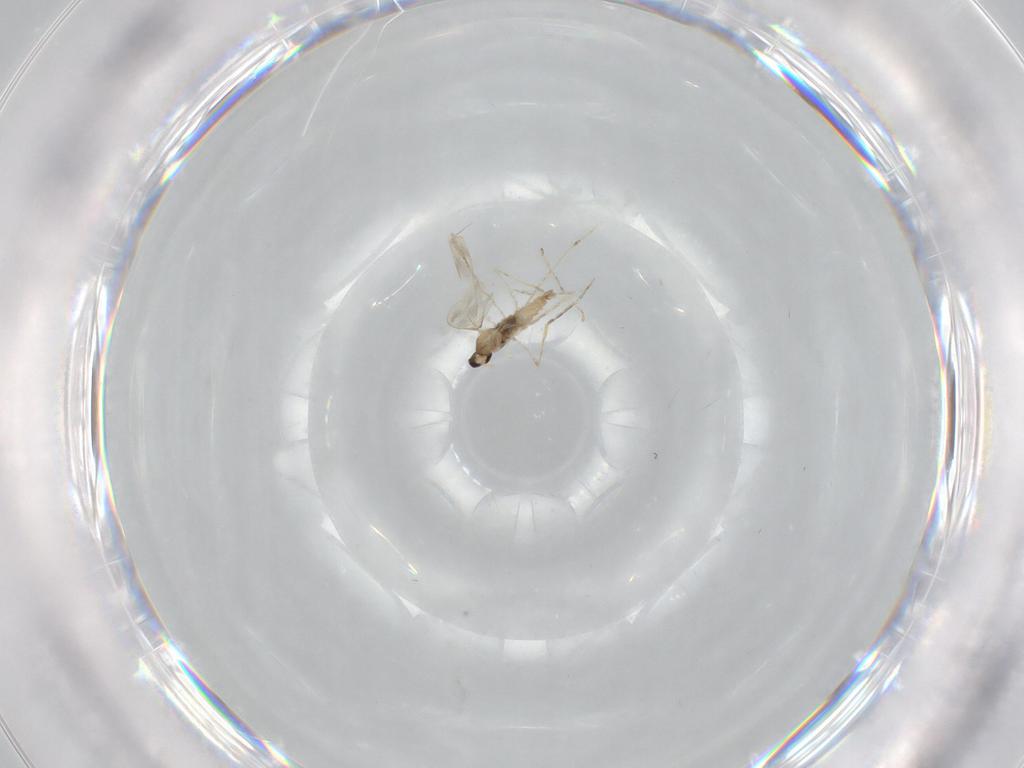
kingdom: Animalia
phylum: Arthropoda
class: Insecta
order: Diptera
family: Cecidomyiidae
